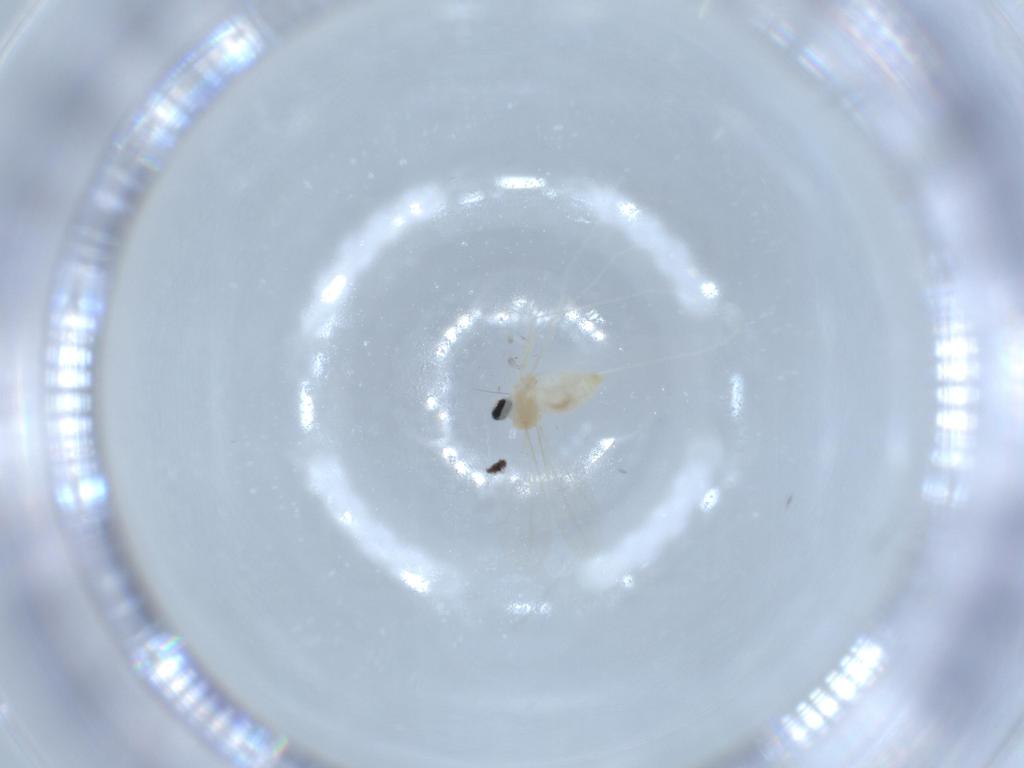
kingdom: Animalia
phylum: Arthropoda
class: Insecta
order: Diptera
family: Cecidomyiidae
